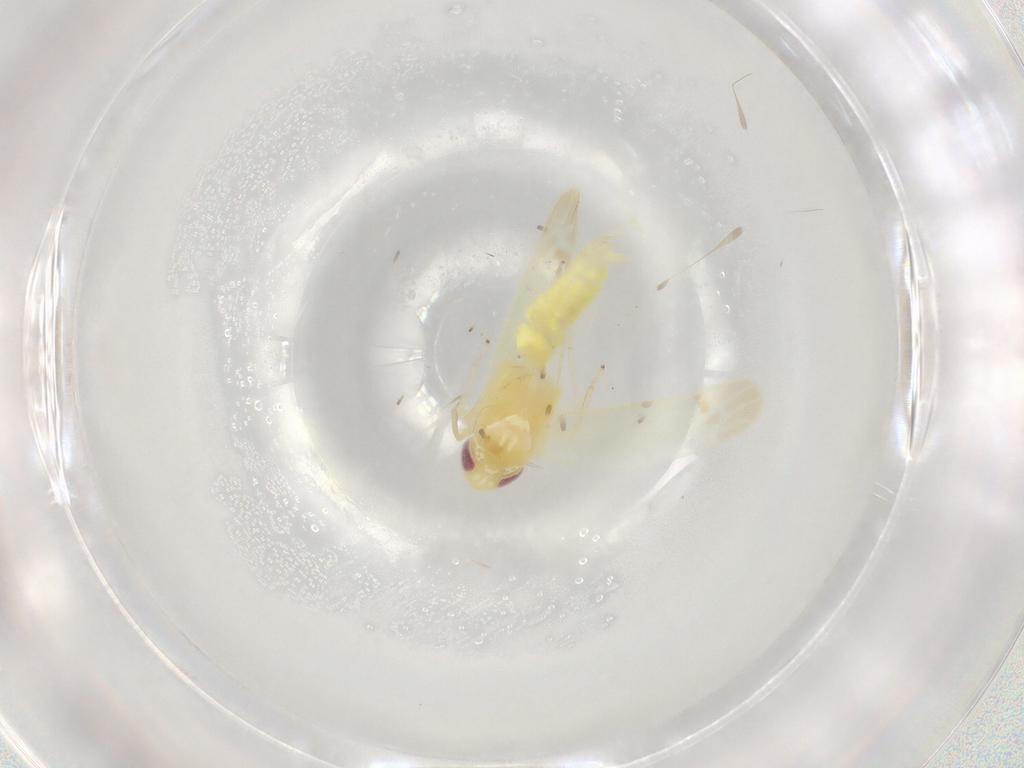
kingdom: Animalia
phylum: Arthropoda
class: Insecta
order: Hemiptera
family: Cicadellidae
